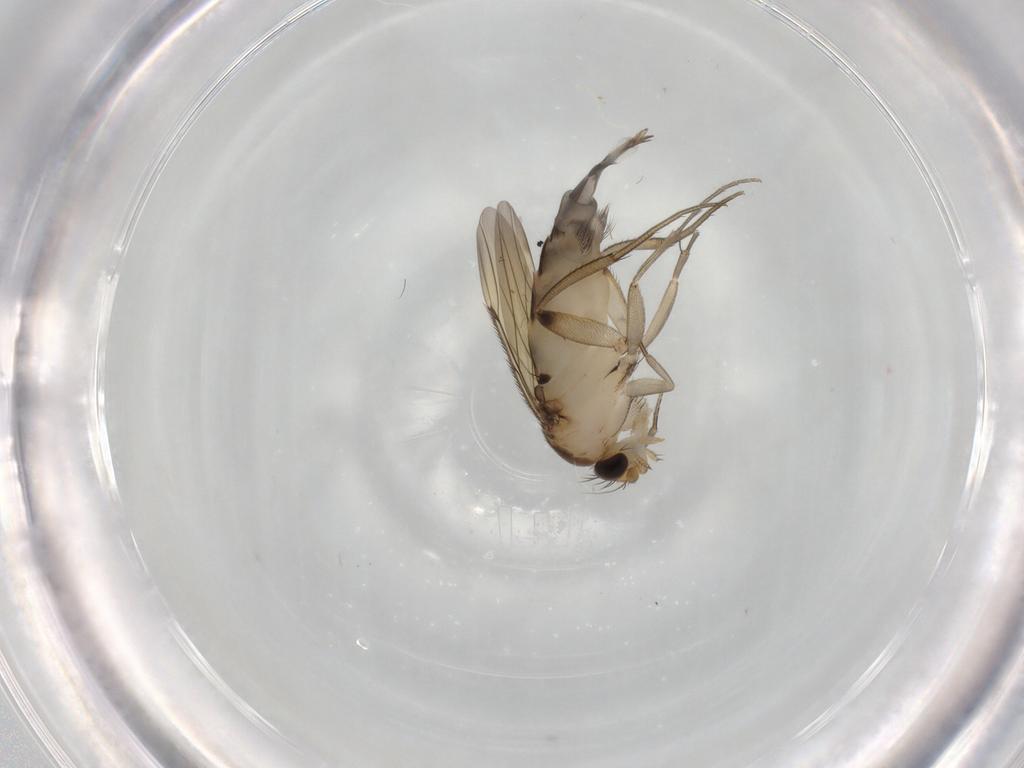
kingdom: Animalia
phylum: Arthropoda
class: Insecta
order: Diptera
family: Phoridae
